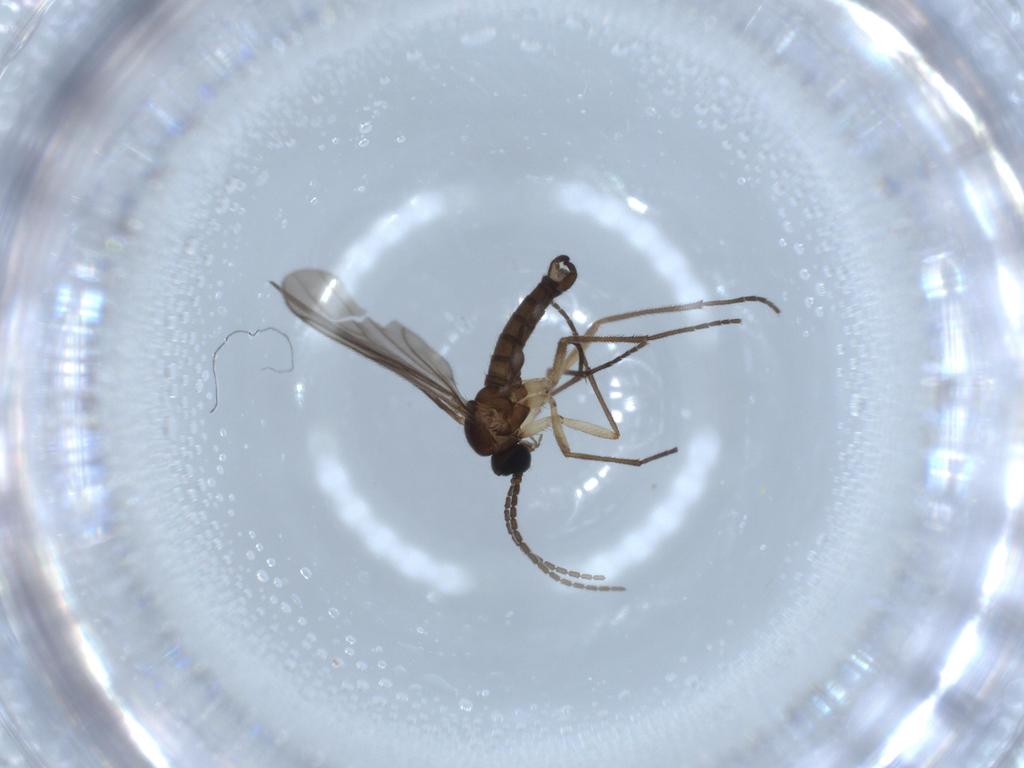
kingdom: Animalia
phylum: Arthropoda
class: Insecta
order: Diptera
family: Sciaridae
